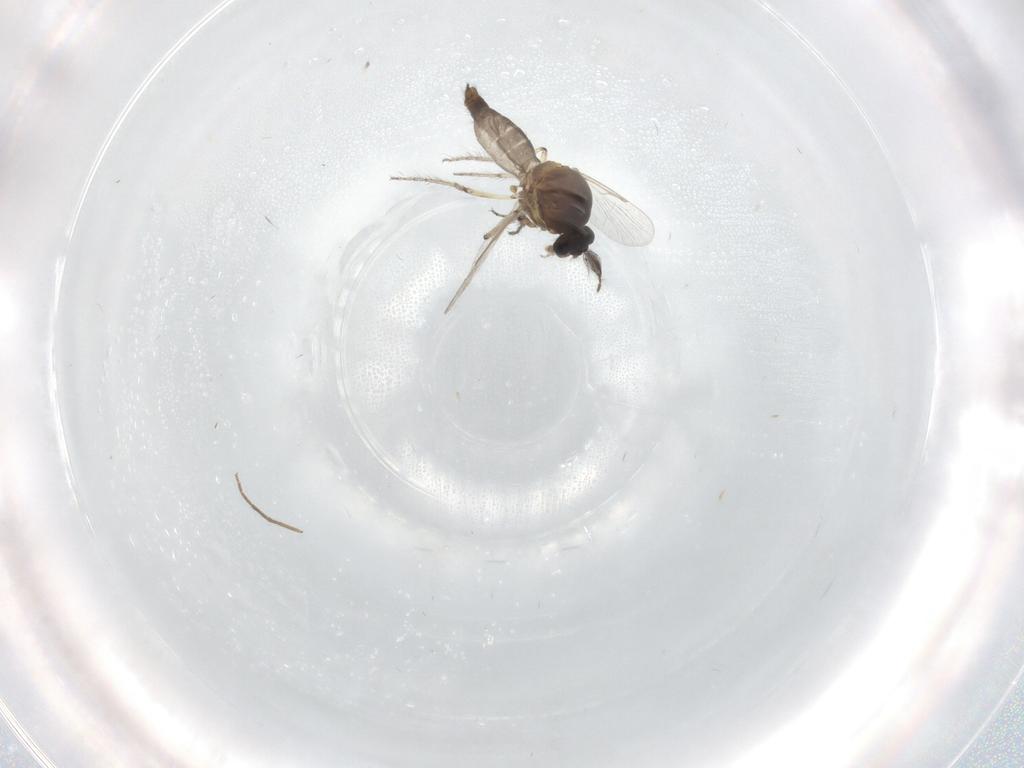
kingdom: Animalia
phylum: Arthropoda
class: Insecta
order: Diptera
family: Ceratopogonidae
